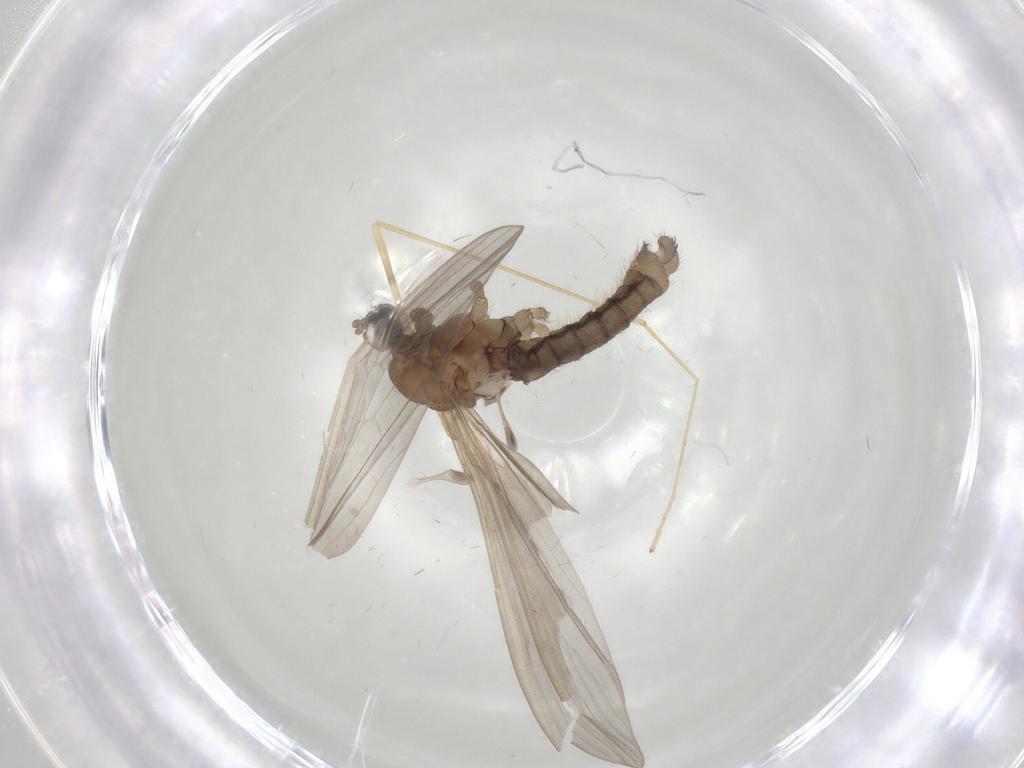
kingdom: Animalia
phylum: Arthropoda
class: Insecta
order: Diptera
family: Limoniidae
